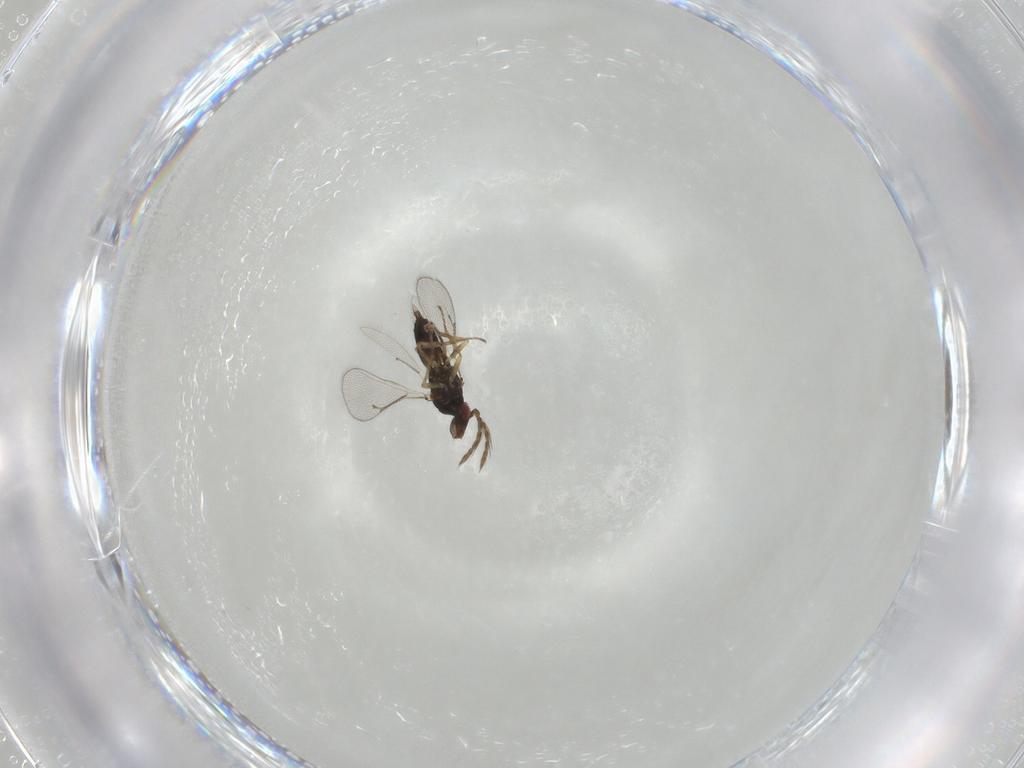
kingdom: Animalia
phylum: Arthropoda
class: Insecta
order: Hymenoptera
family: Eulophidae
